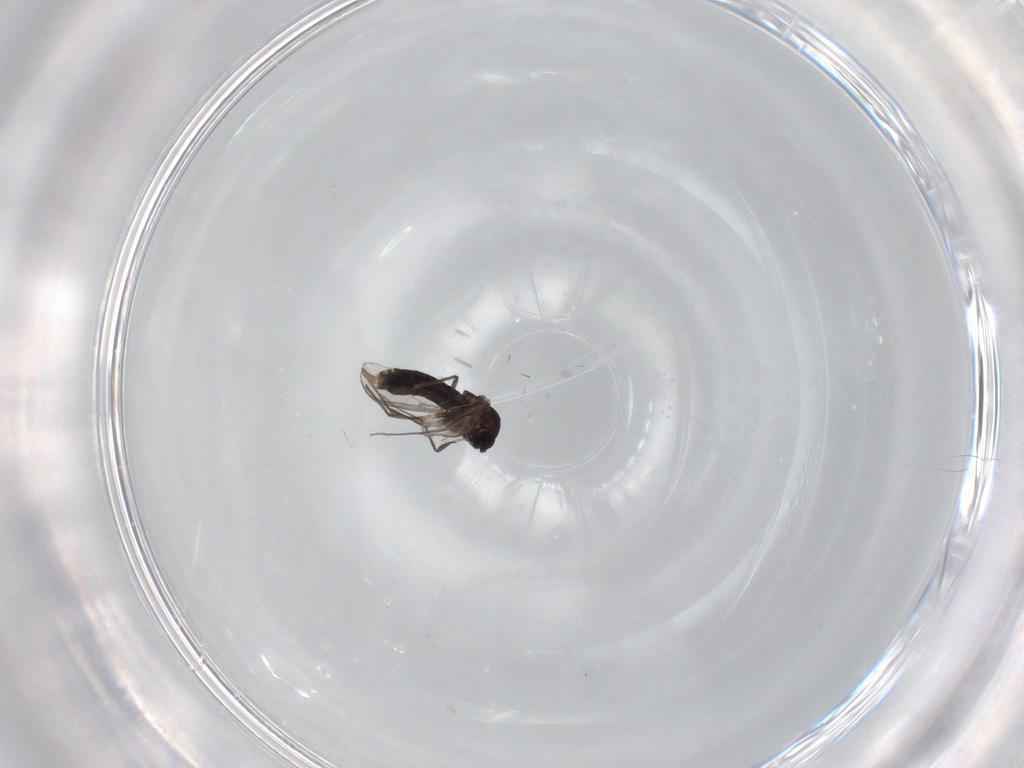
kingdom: Animalia
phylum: Arthropoda
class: Insecta
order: Diptera
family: Chironomidae
